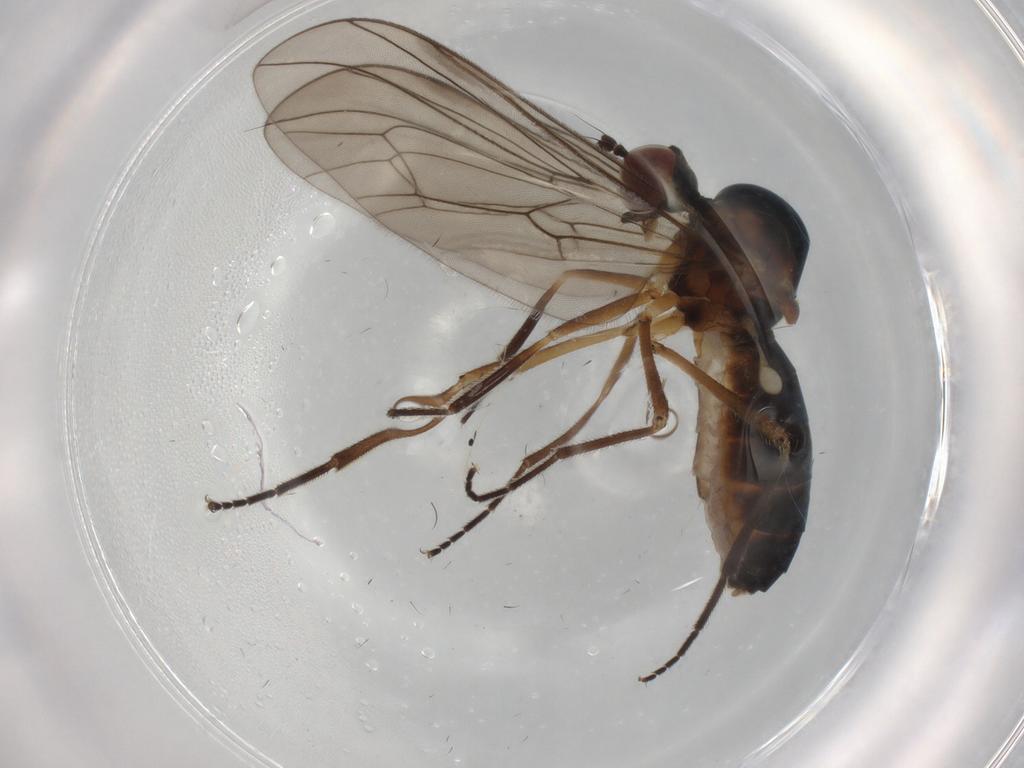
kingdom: Animalia
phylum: Arthropoda
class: Insecta
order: Diptera
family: Hybotidae
